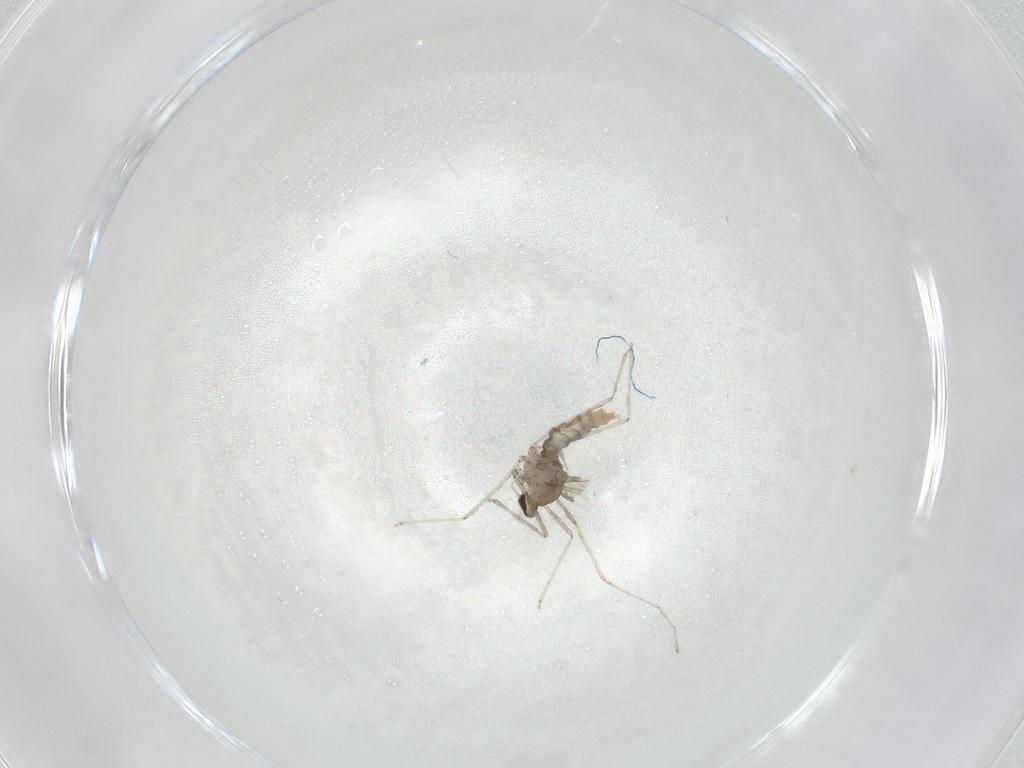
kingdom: Animalia
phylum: Arthropoda
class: Insecta
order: Diptera
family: Cecidomyiidae
